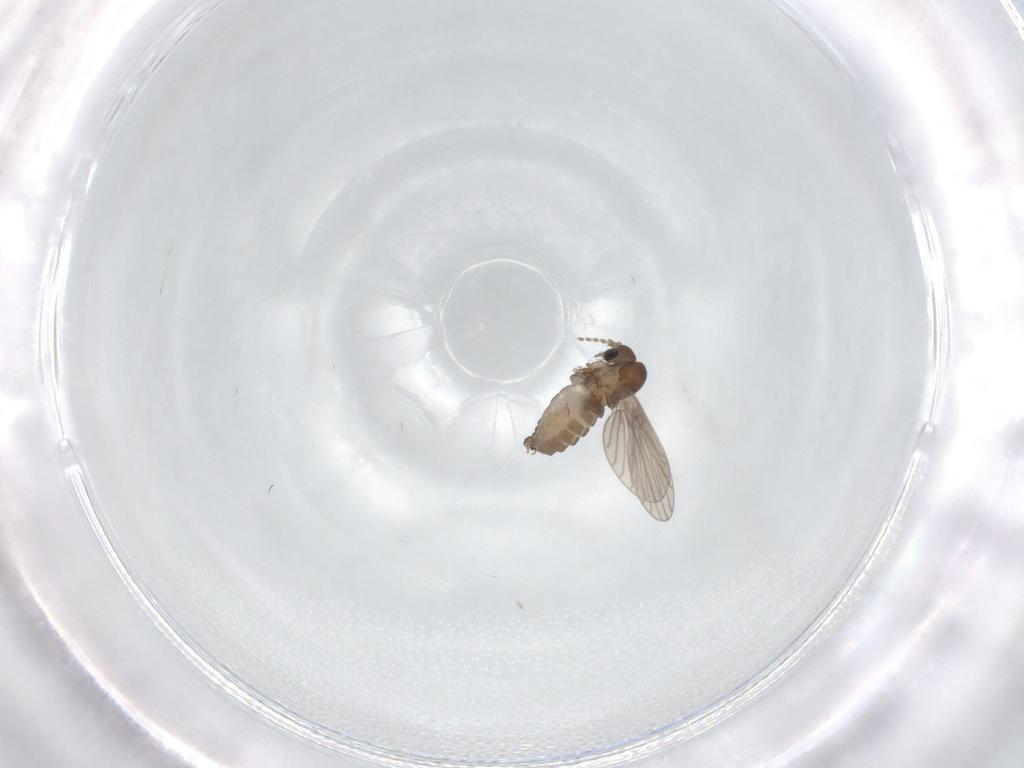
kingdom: Animalia
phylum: Arthropoda
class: Insecta
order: Diptera
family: Psychodidae
